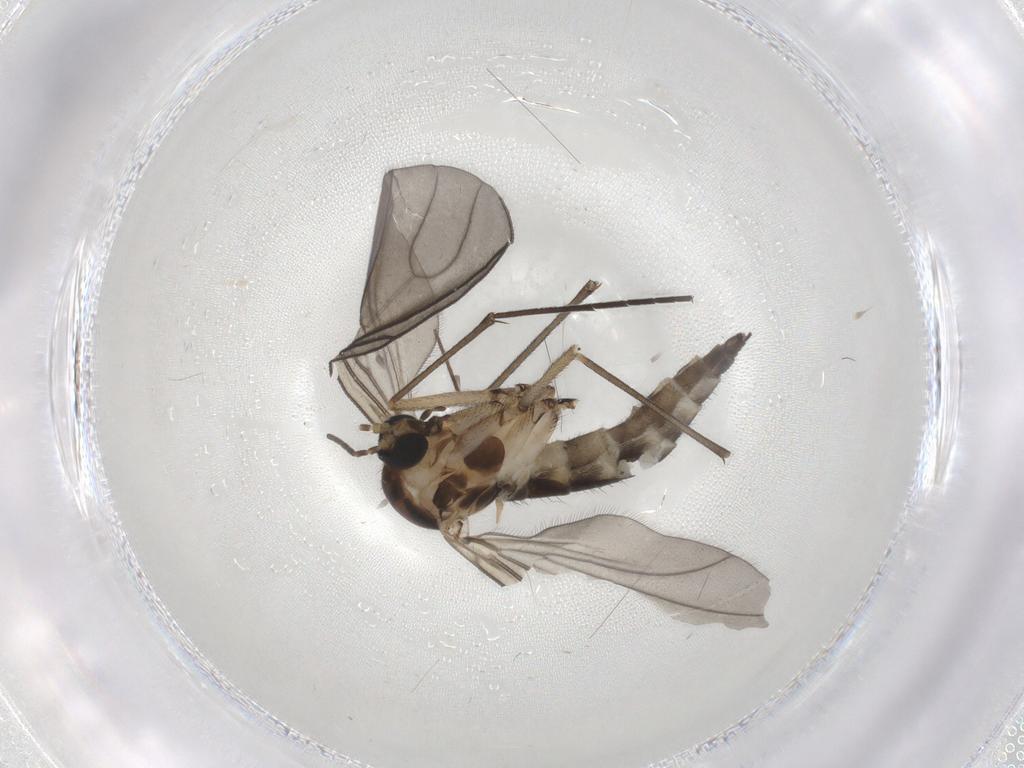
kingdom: Animalia
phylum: Arthropoda
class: Insecta
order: Diptera
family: Sciaridae
